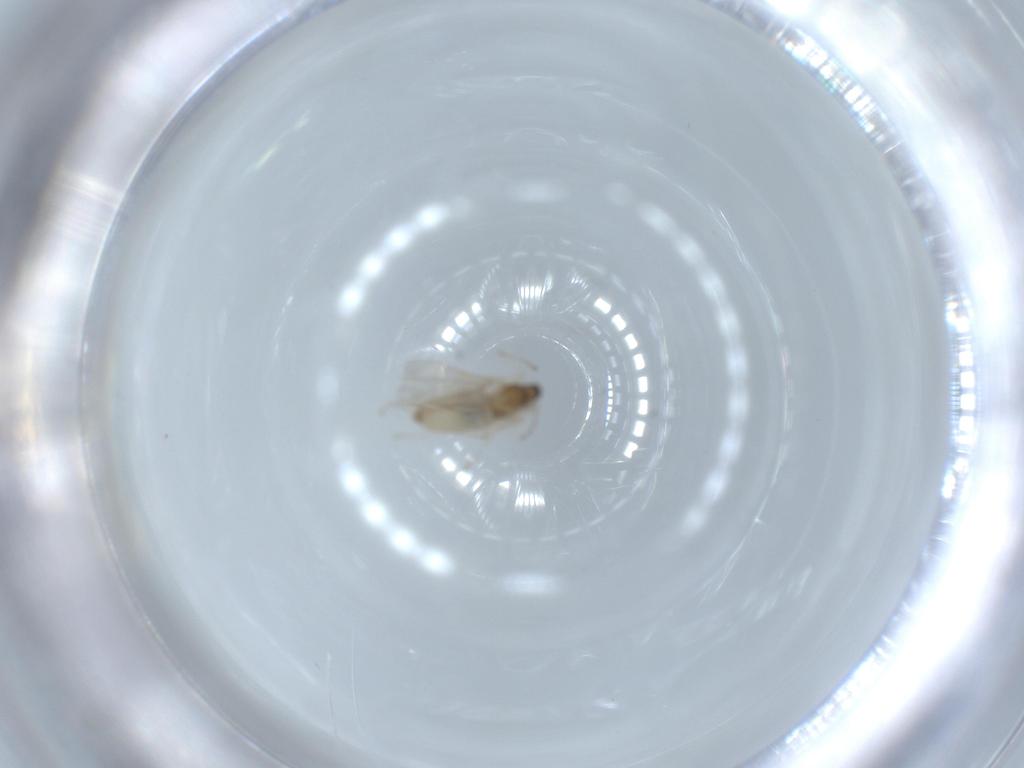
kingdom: Animalia
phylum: Arthropoda
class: Insecta
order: Diptera
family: Cecidomyiidae
